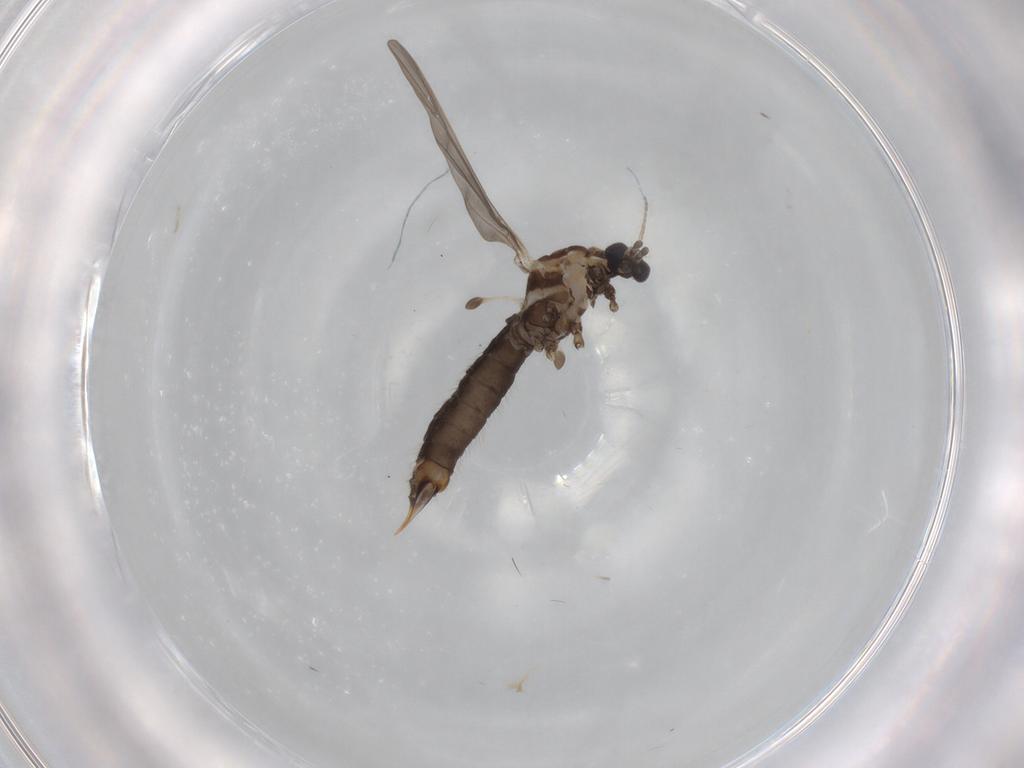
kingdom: Animalia
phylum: Arthropoda
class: Insecta
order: Diptera
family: Limoniidae
